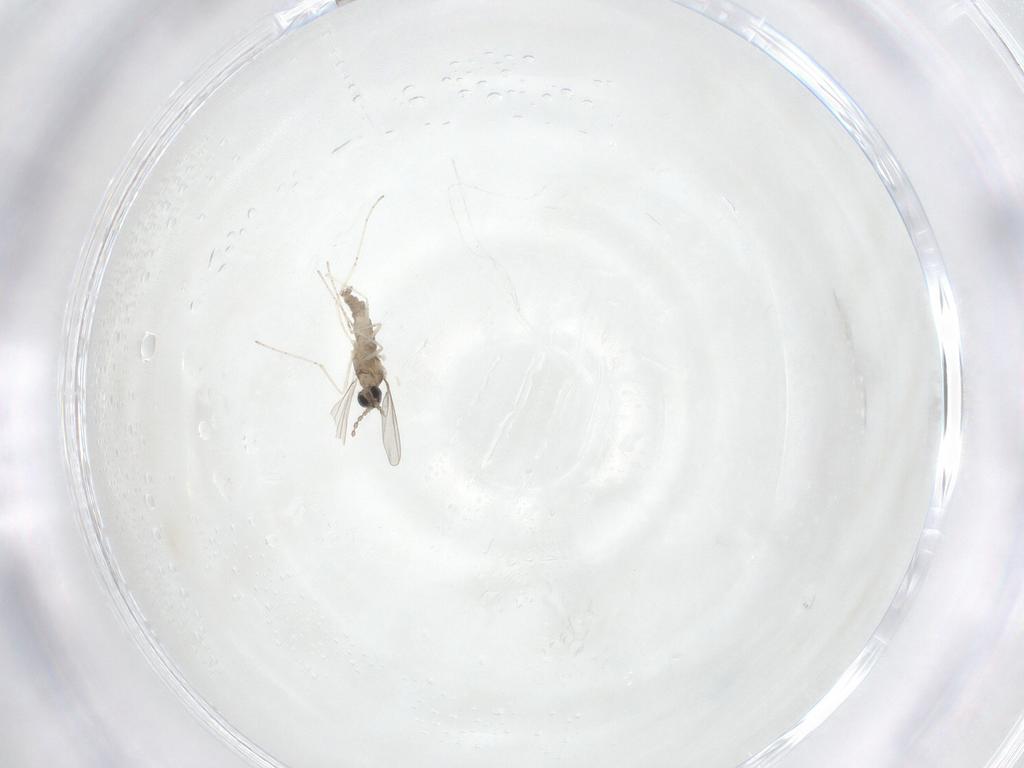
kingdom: Animalia
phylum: Arthropoda
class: Insecta
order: Diptera
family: Cecidomyiidae
